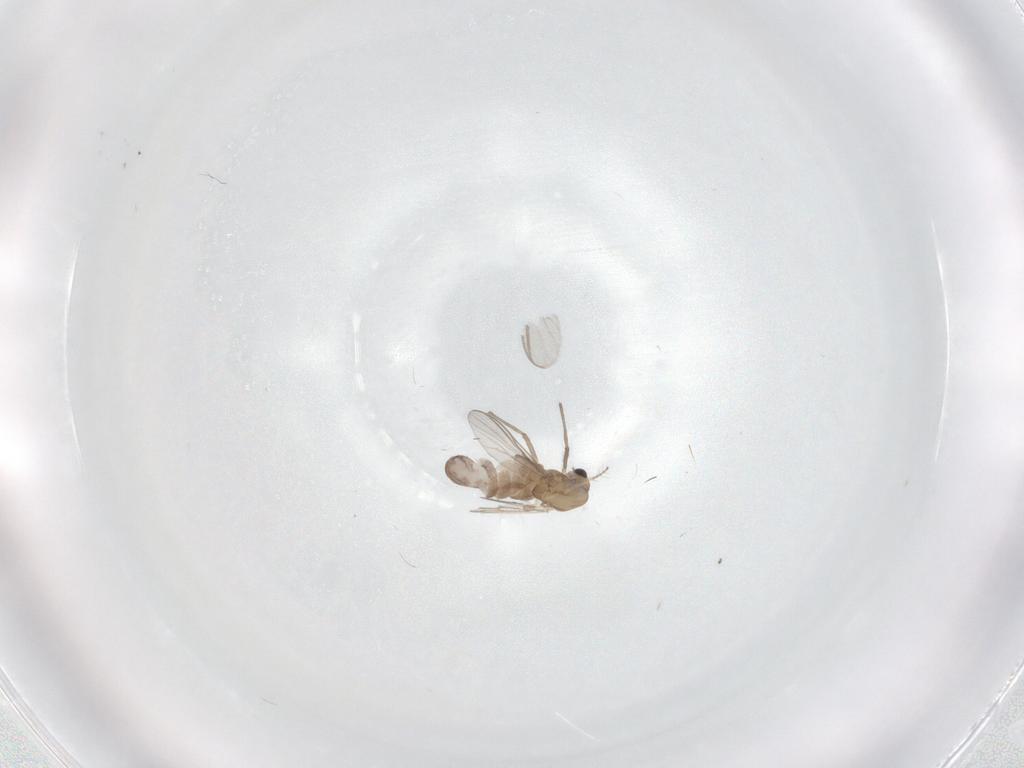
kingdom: Animalia
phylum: Arthropoda
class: Insecta
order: Diptera
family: Chironomidae
